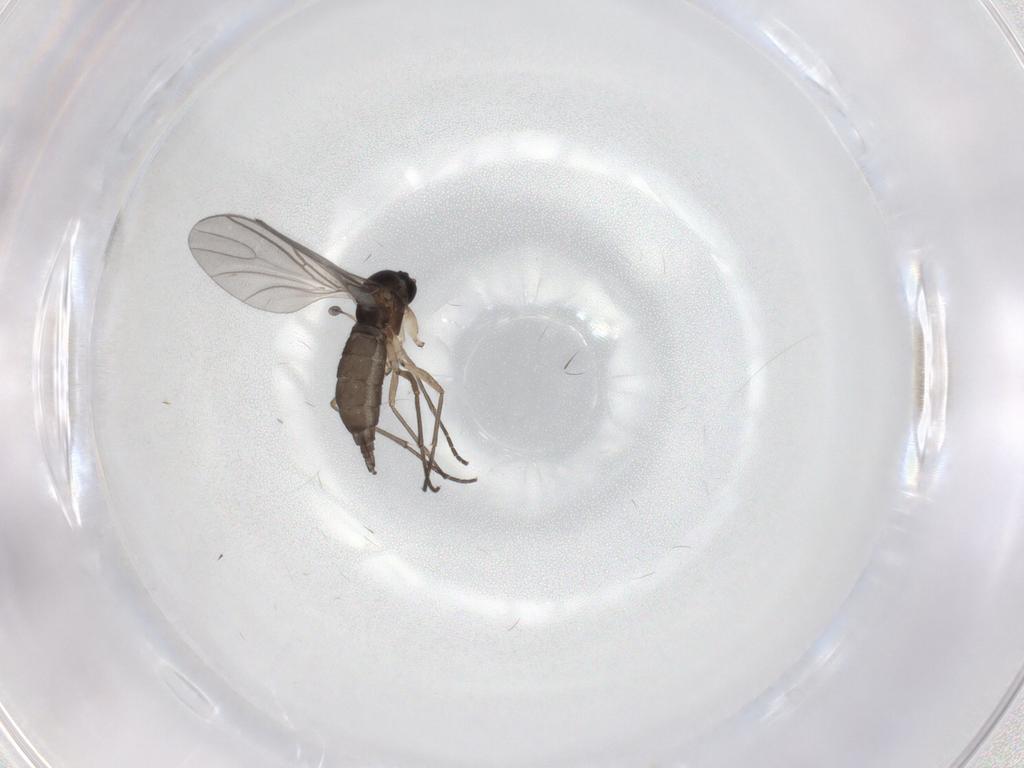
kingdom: Animalia
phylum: Arthropoda
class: Insecta
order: Diptera
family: Sciaridae
